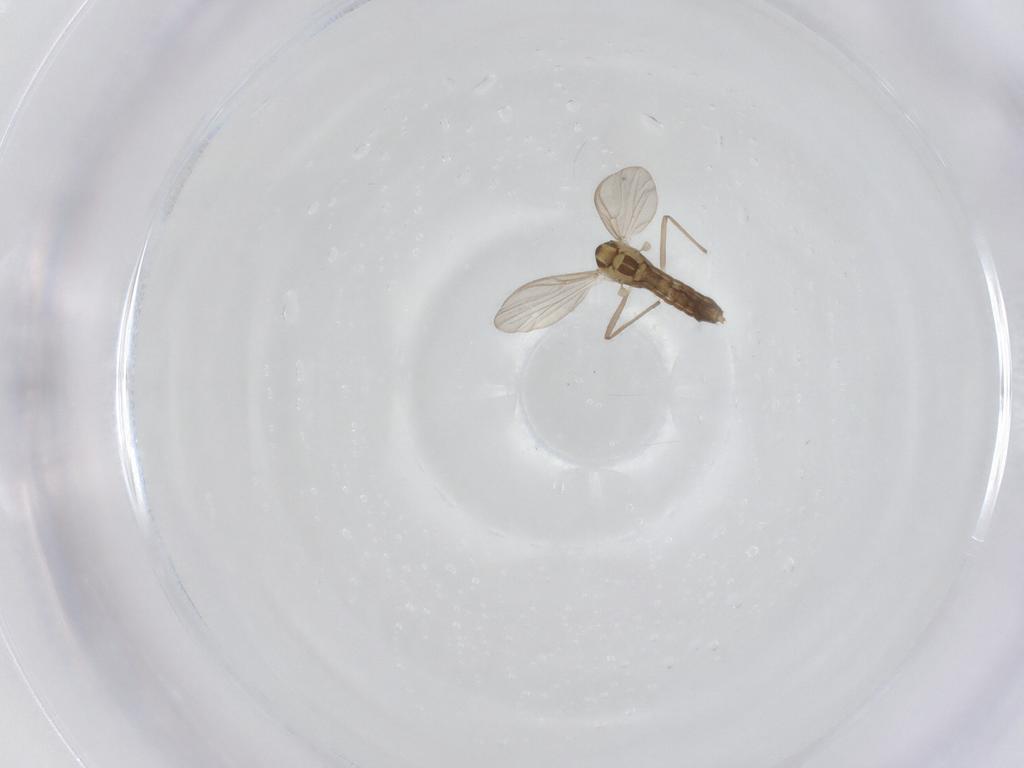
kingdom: Animalia
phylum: Arthropoda
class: Insecta
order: Diptera
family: Chironomidae
